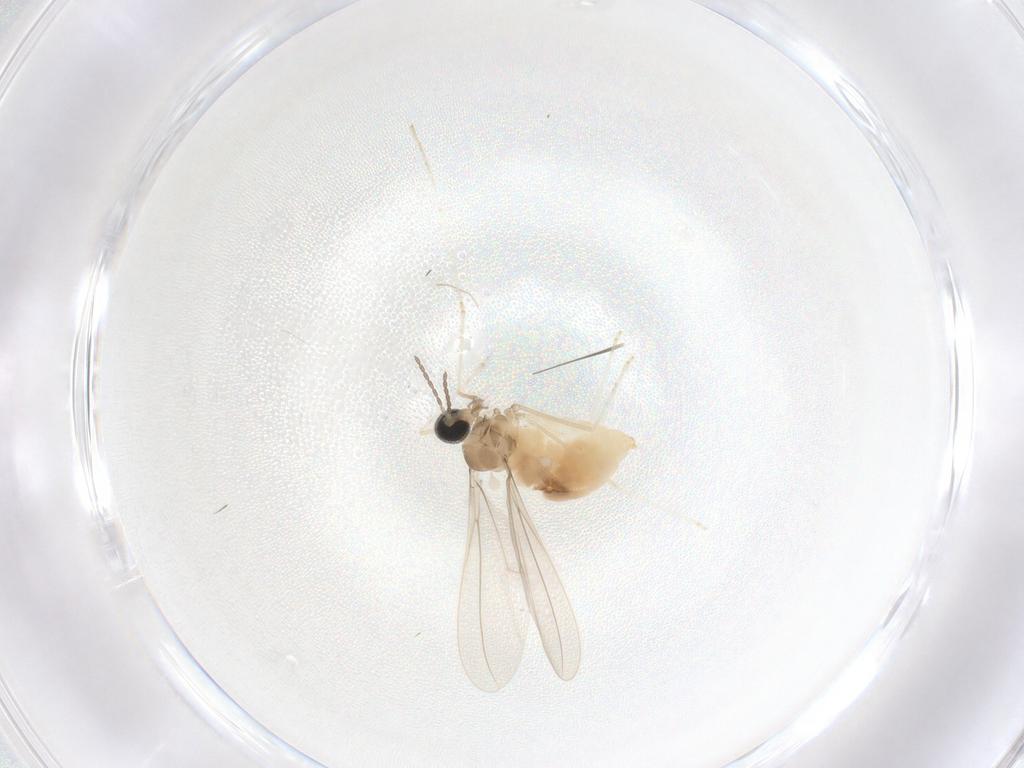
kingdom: Animalia
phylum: Arthropoda
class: Insecta
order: Diptera
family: Cecidomyiidae
